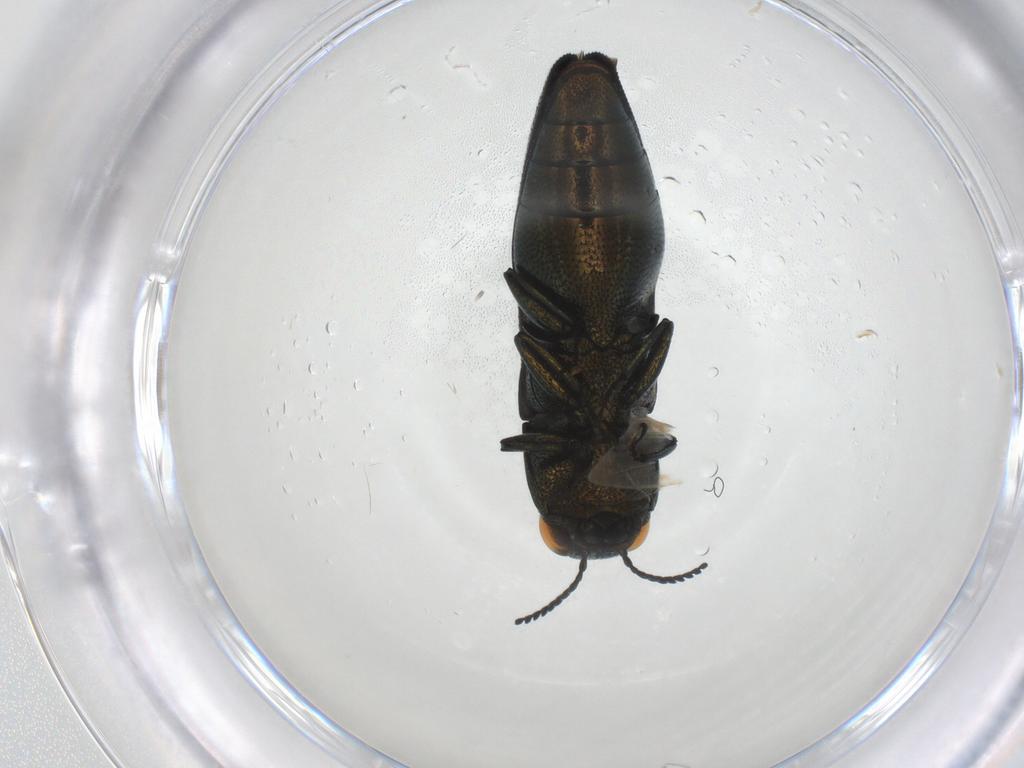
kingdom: Animalia
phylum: Arthropoda
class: Insecta
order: Coleoptera
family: Buprestidae
